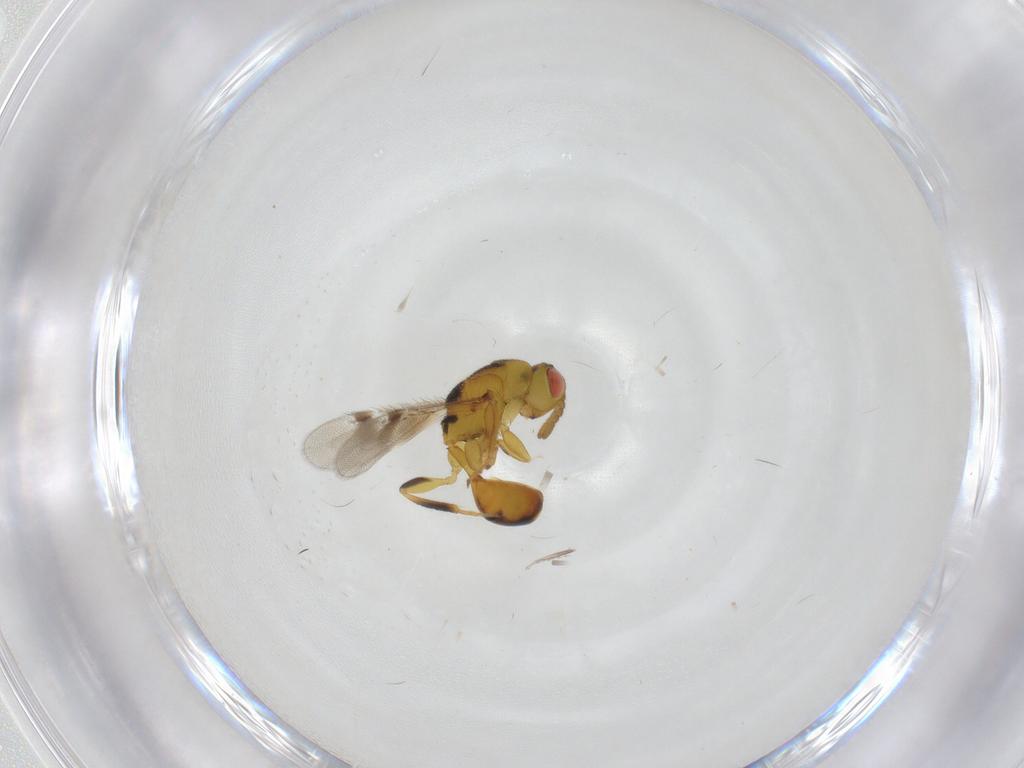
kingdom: Animalia
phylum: Arthropoda
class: Insecta
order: Hymenoptera
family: Eurytomidae
